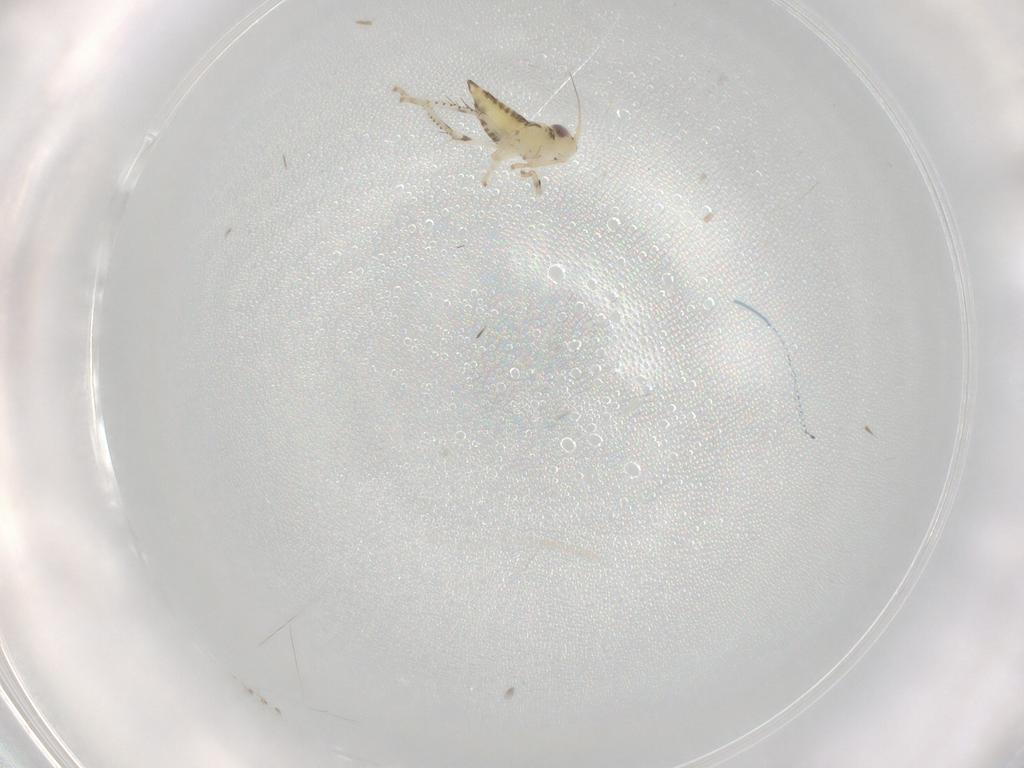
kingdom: Animalia
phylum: Arthropoda
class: Insecta
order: Hemiptera
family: Cicadellidae
